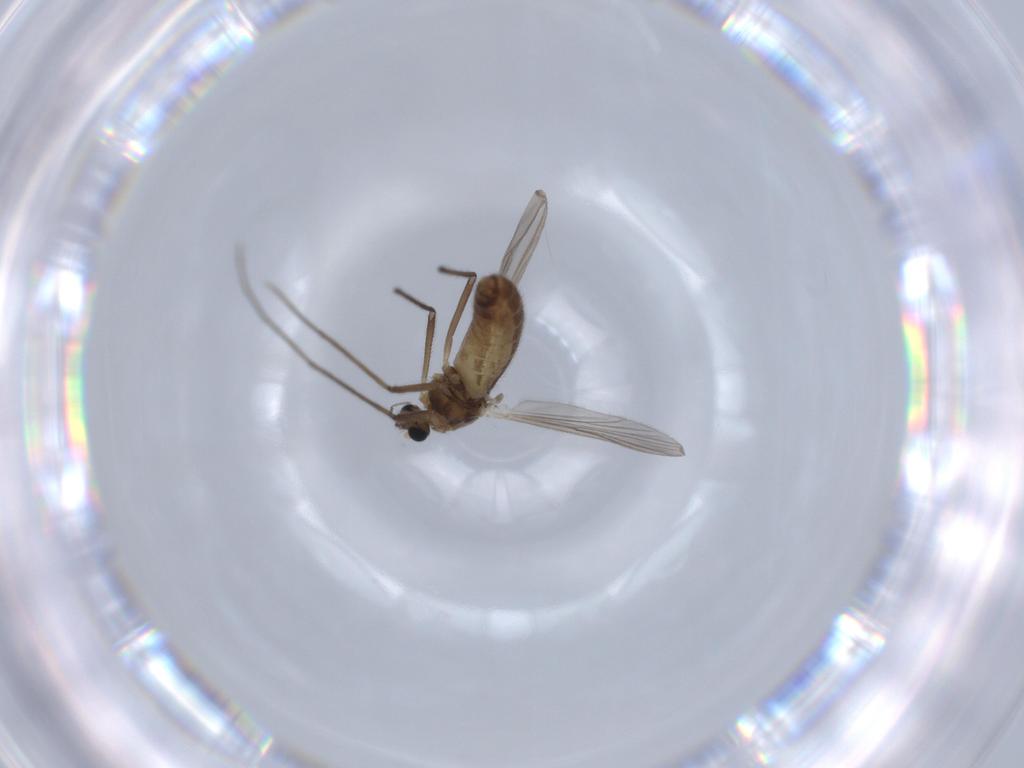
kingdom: Animalia
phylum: Arthropoda
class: Insecta
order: Diptera
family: Chironomidae
